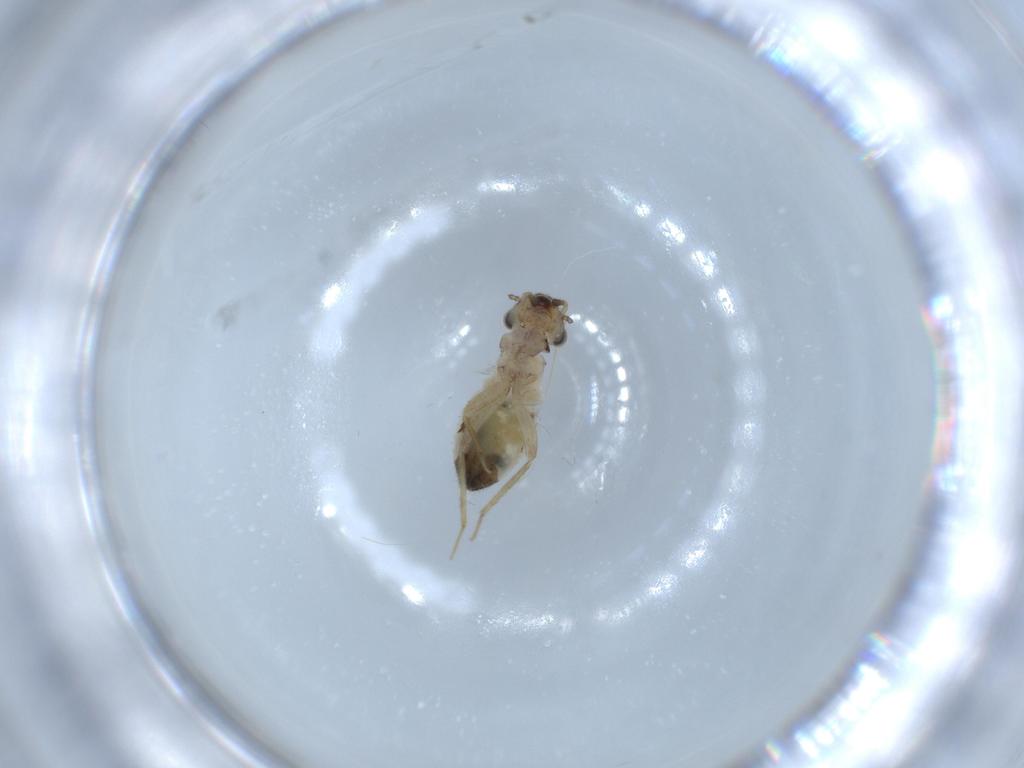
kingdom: Animalia
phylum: Arthropoda
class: Insecta
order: Psocodea
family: Lepidopsocidae
